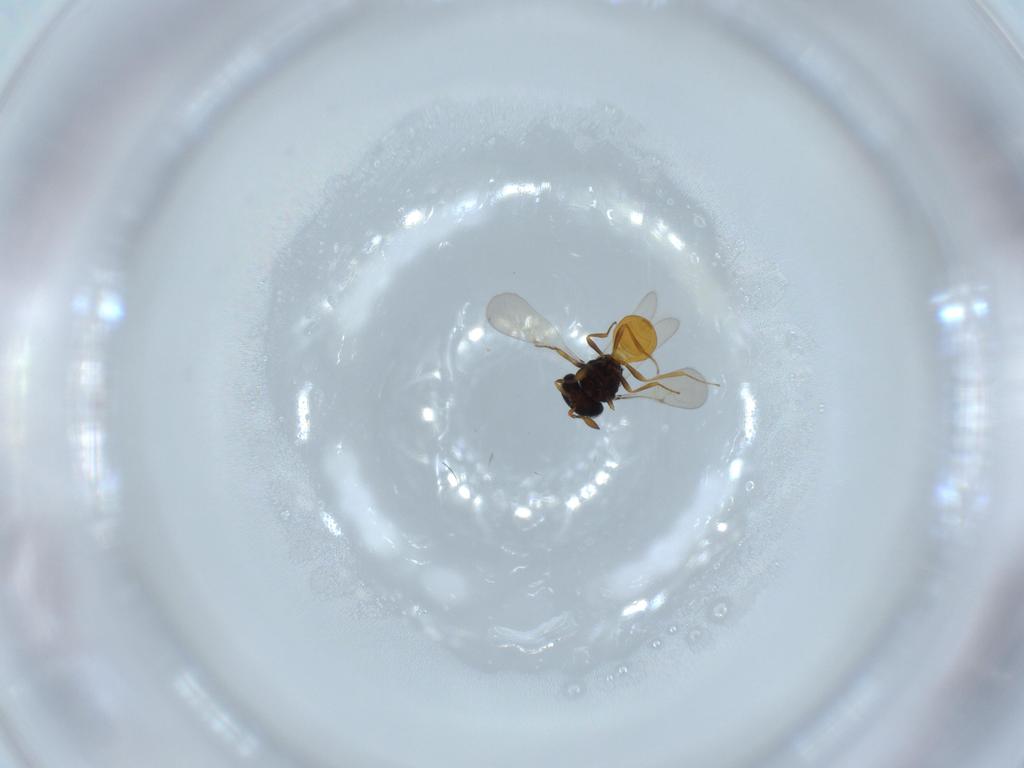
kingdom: Animalia
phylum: Arthropoda
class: Insecta
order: Hymenoptera
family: Scelionidae
